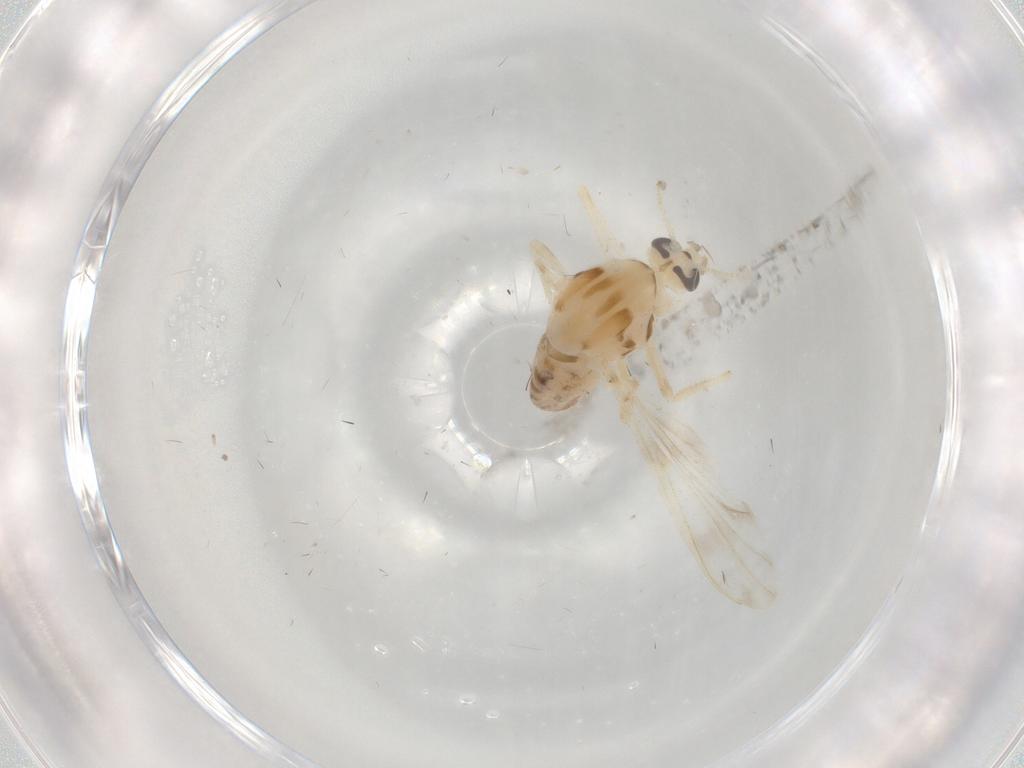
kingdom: Animalia
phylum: Arthropoda
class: Insecta
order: Diptera
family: Chironomidae
